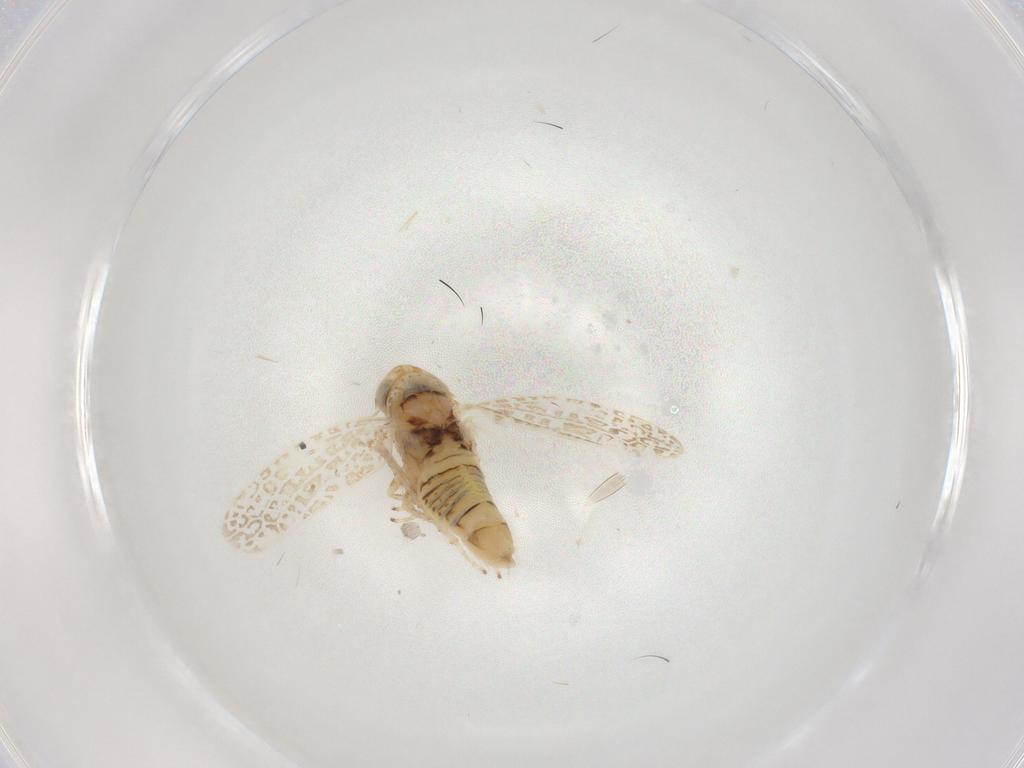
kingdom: Animalia
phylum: Arthropoda
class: Insecta
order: Hemiptera
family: Cicadellidae
